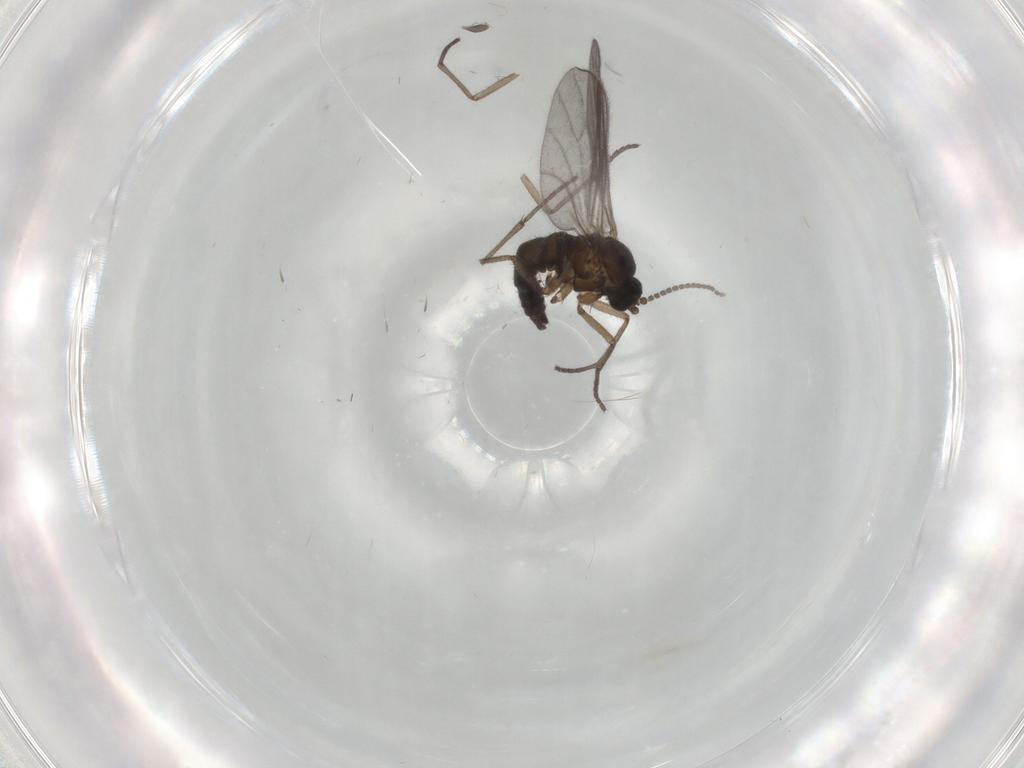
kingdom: Animalia
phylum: Arthropoda
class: Insecta
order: Diptera
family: Sciaridae
